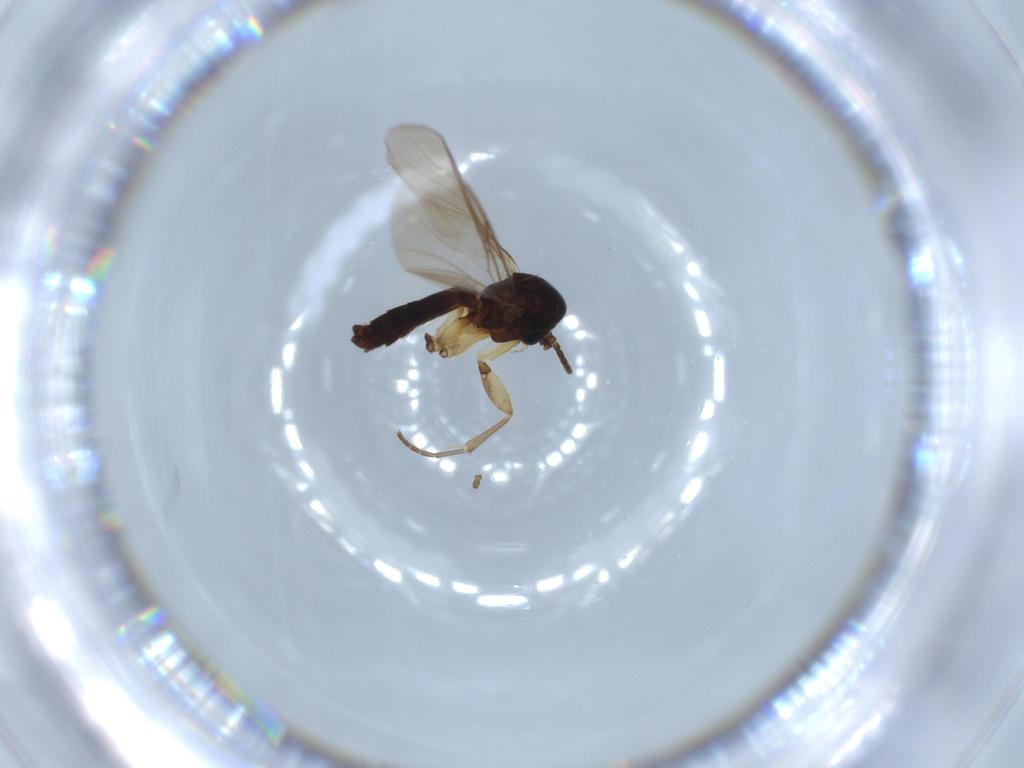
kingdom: Animalia
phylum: Arthropoda
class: Insecta
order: Diptera
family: Mycetophilidae
